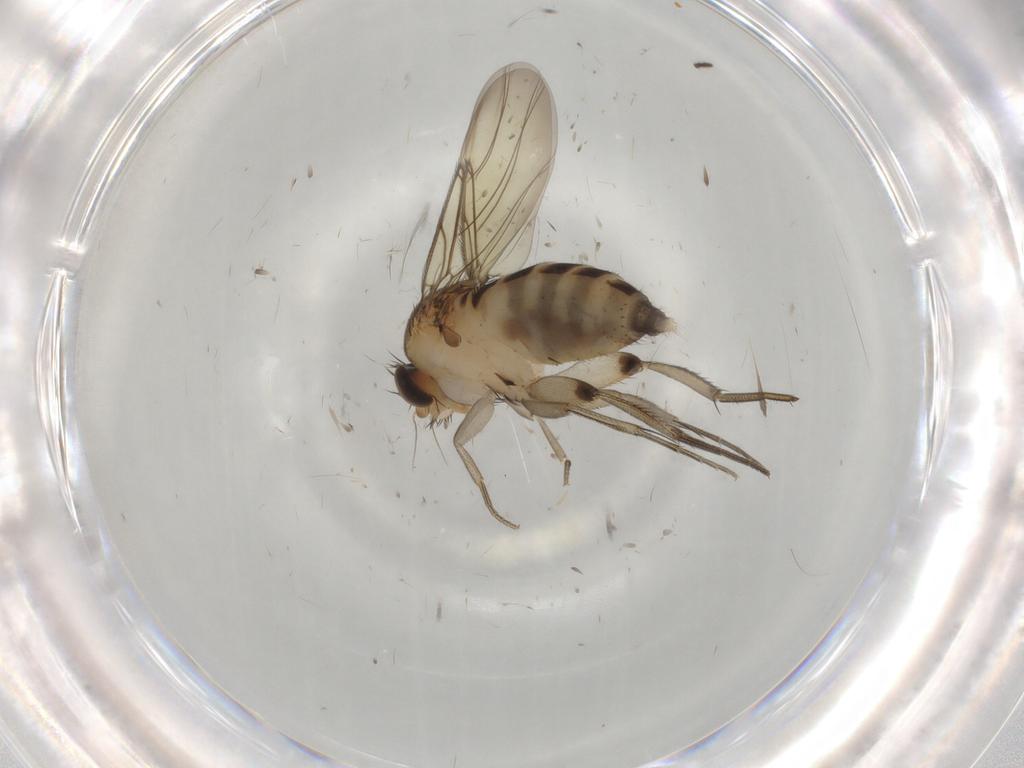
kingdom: Animalia
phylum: Arthropoda
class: Insecta
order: Diptera
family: Phoridae
